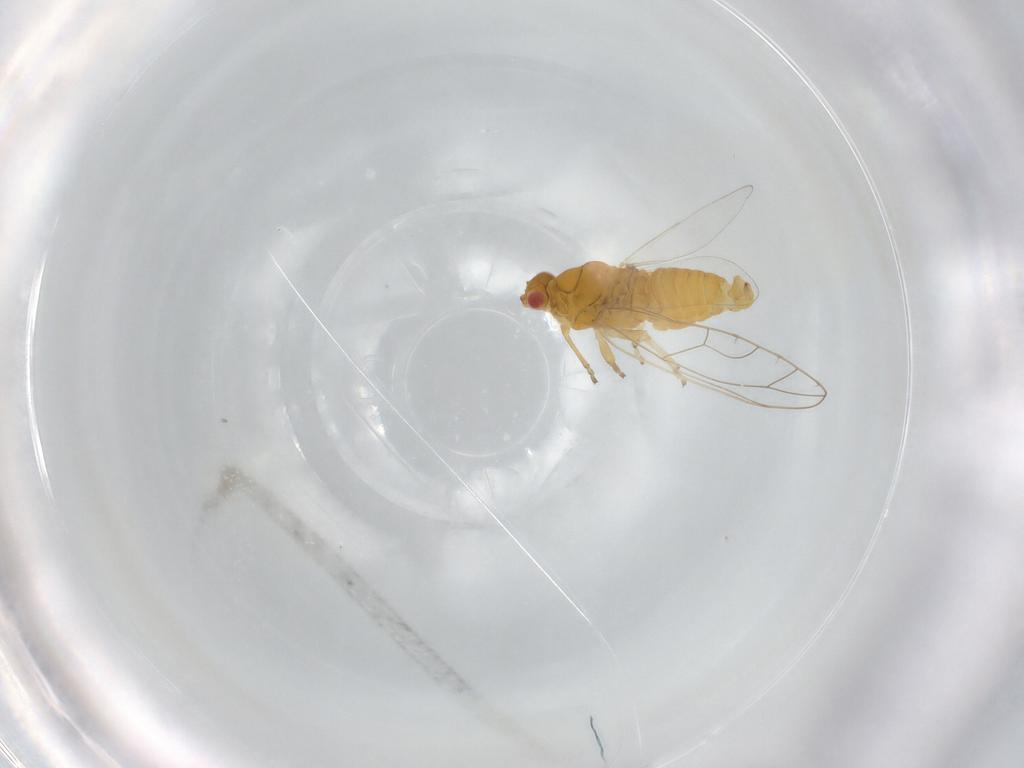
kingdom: Animalia
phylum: Arthropoda
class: Insecta
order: Hemiptera
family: Triozidae
